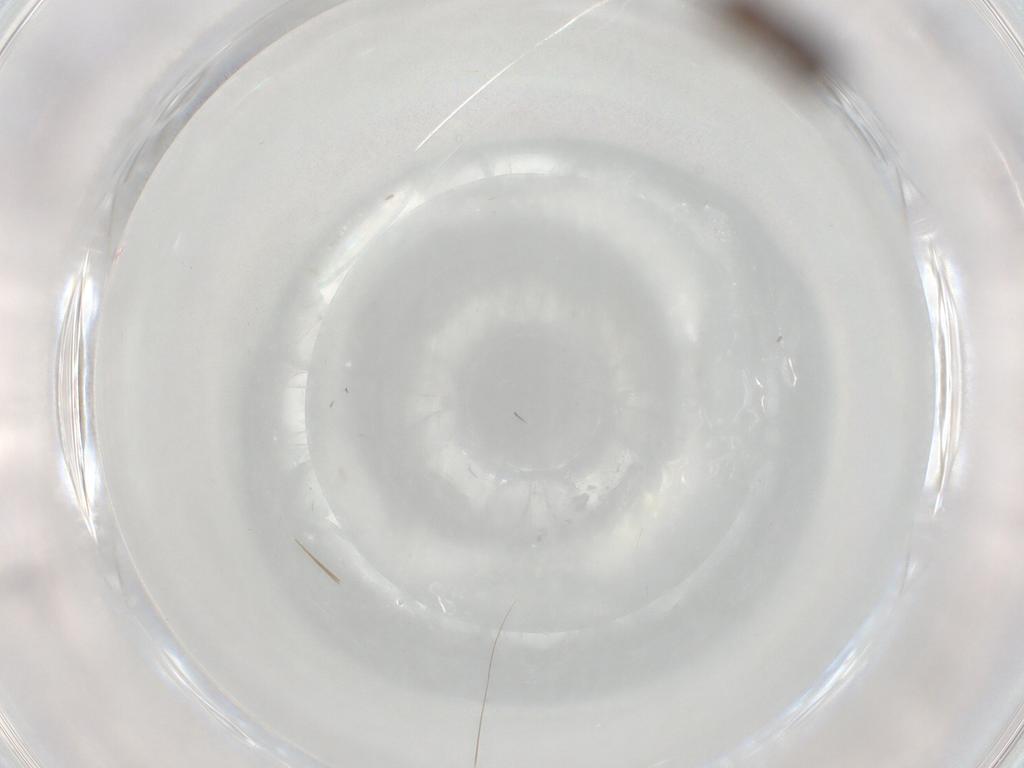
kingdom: Animalia
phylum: Arthropoda
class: Insecta
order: Diptera
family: Chironomidae
